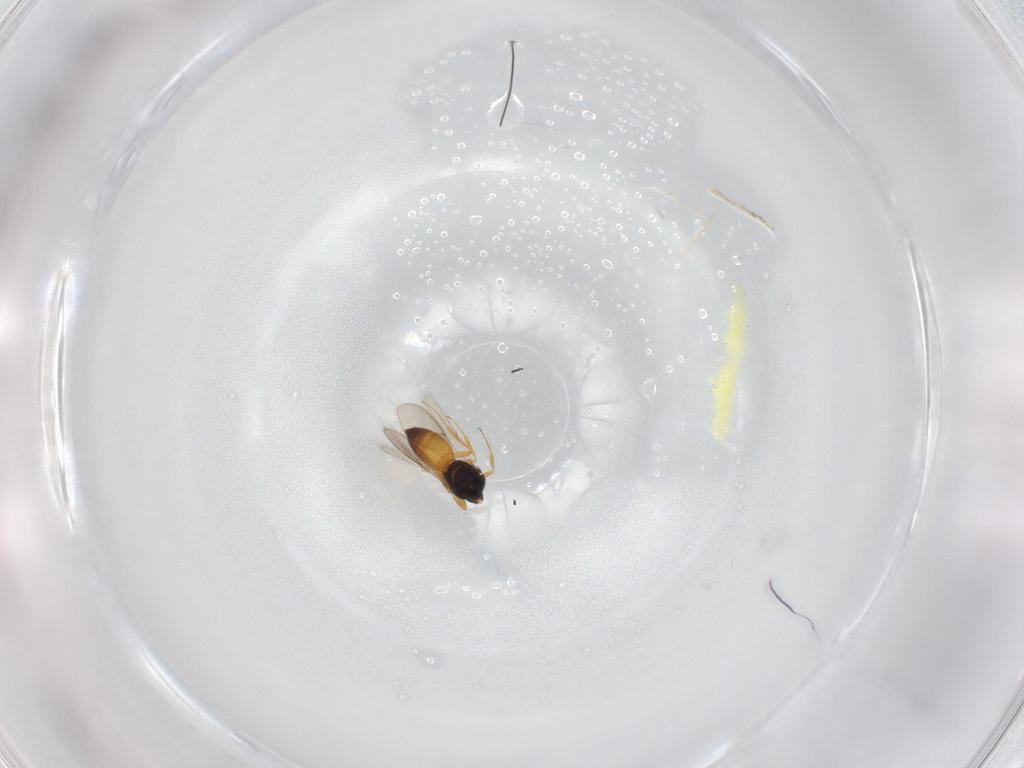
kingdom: Animalia
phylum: Arthropoda
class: Insecta
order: Hymenoptera
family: Scelionidae
